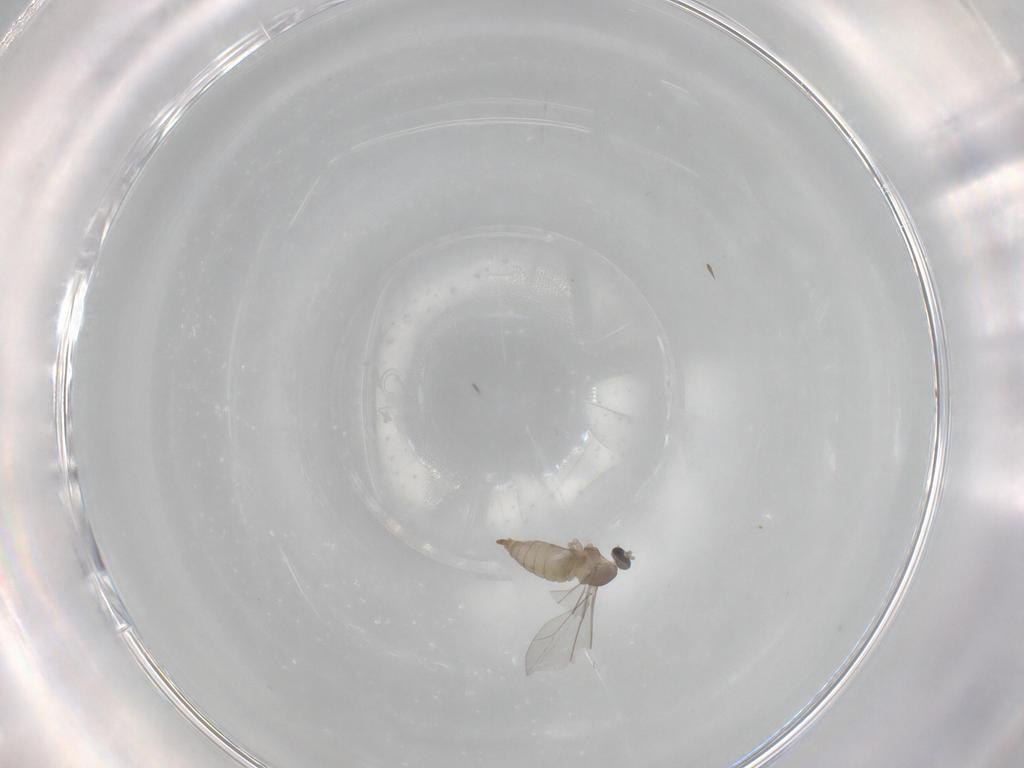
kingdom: Animalia
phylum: Arthropoda
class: Insecta
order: Diptera
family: Cecidomyiidae
